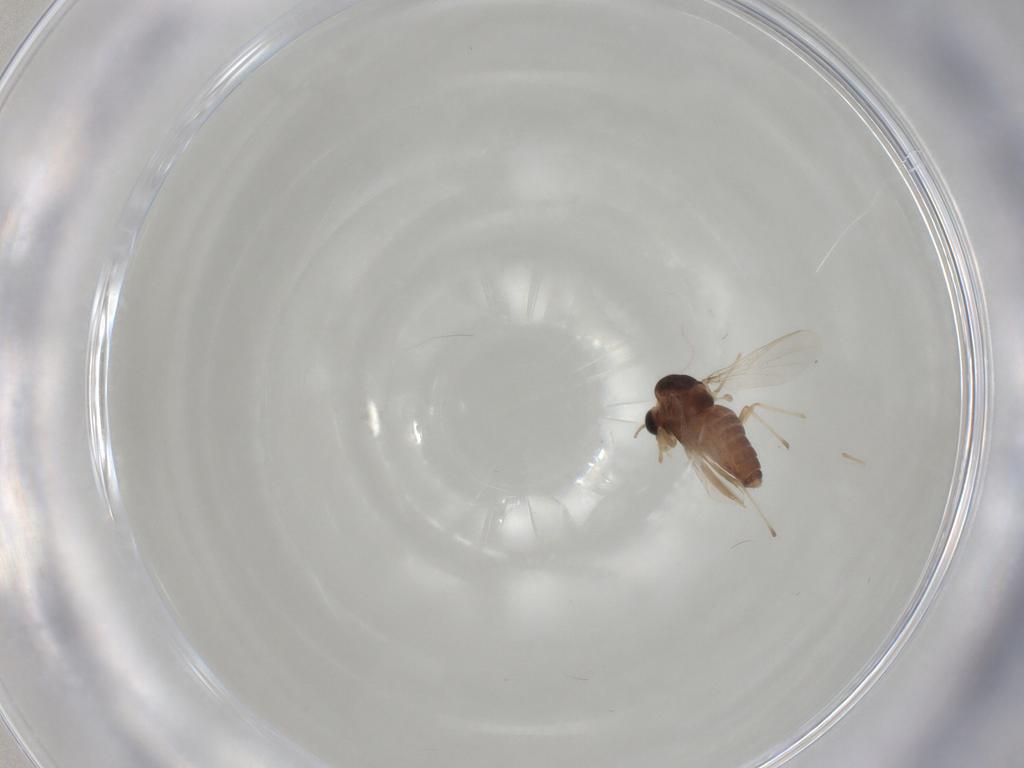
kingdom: Animalia
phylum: Arthropoda
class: Insecta
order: Diptera
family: Chironomidae
